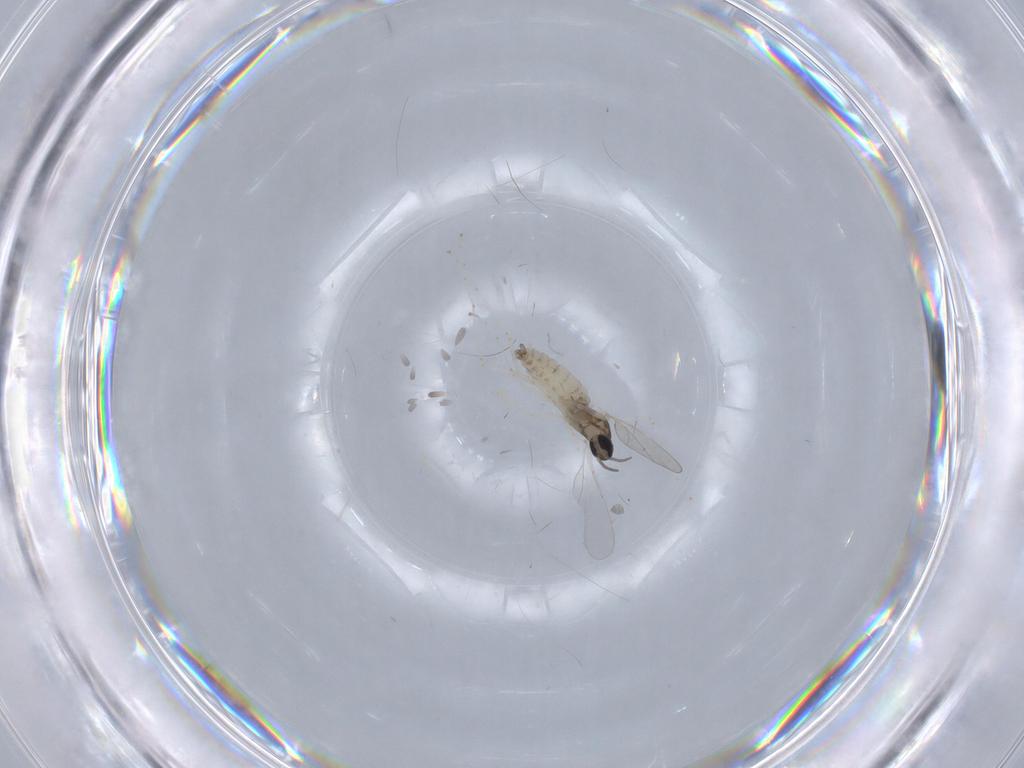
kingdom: Animalia
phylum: Arthropoda
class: Insecta
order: Diptera
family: Cecidomyiidae
